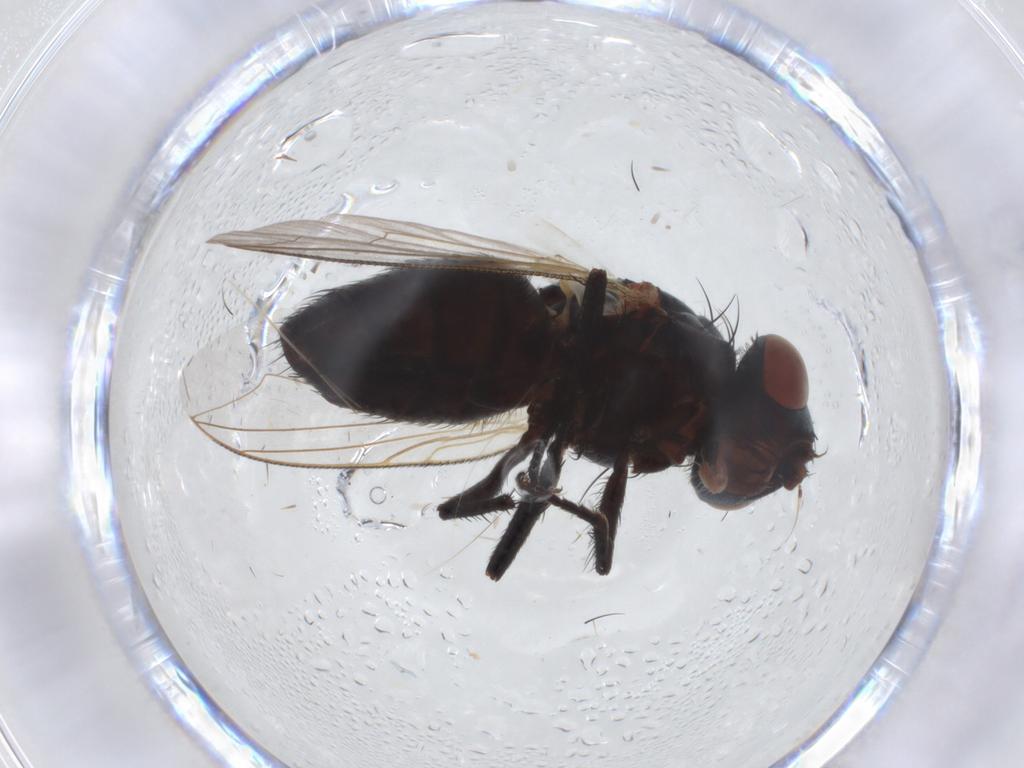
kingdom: Animalia
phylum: Arthropoda
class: Insecta
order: Diptera
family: Sarcophagidae
